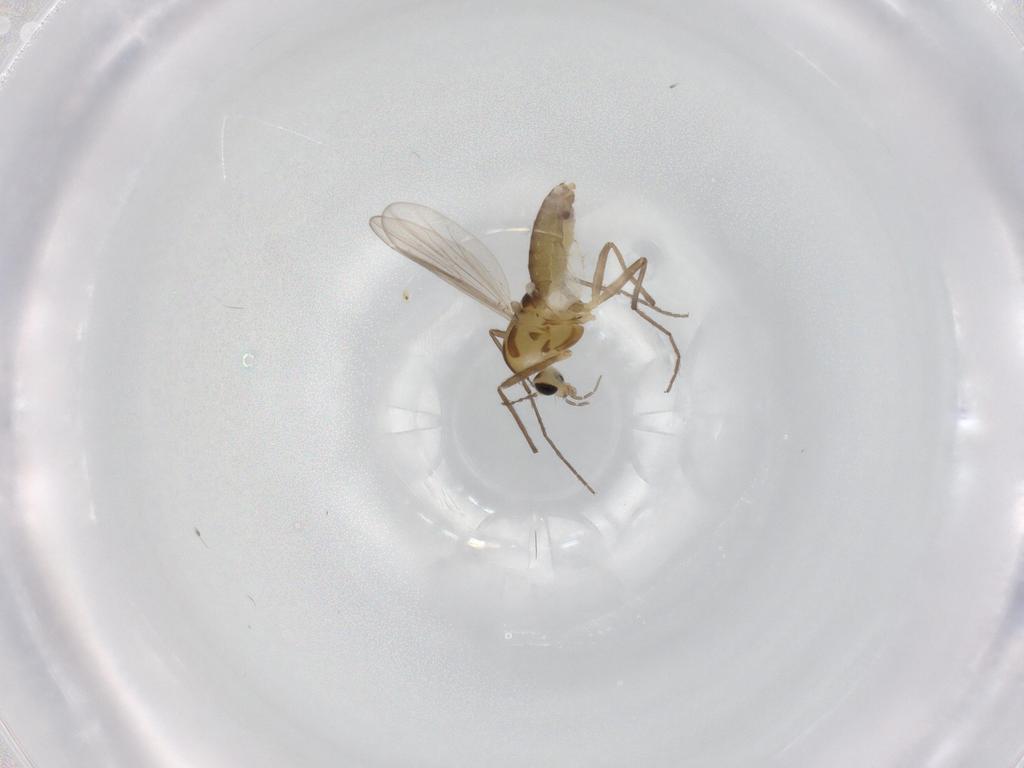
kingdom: Animalia
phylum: Arthropoda
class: Insecta
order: Diptera
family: Chironomidae
